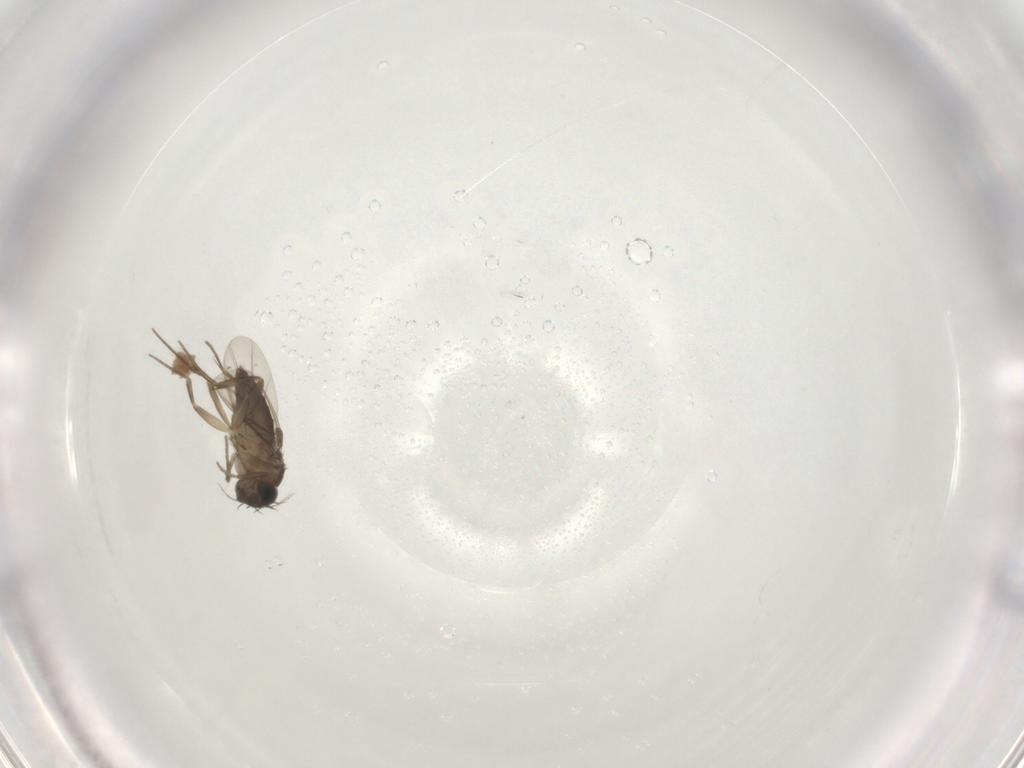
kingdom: Animalia
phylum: Arthropoda
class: Insecta
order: Diptera
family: Phoridae
